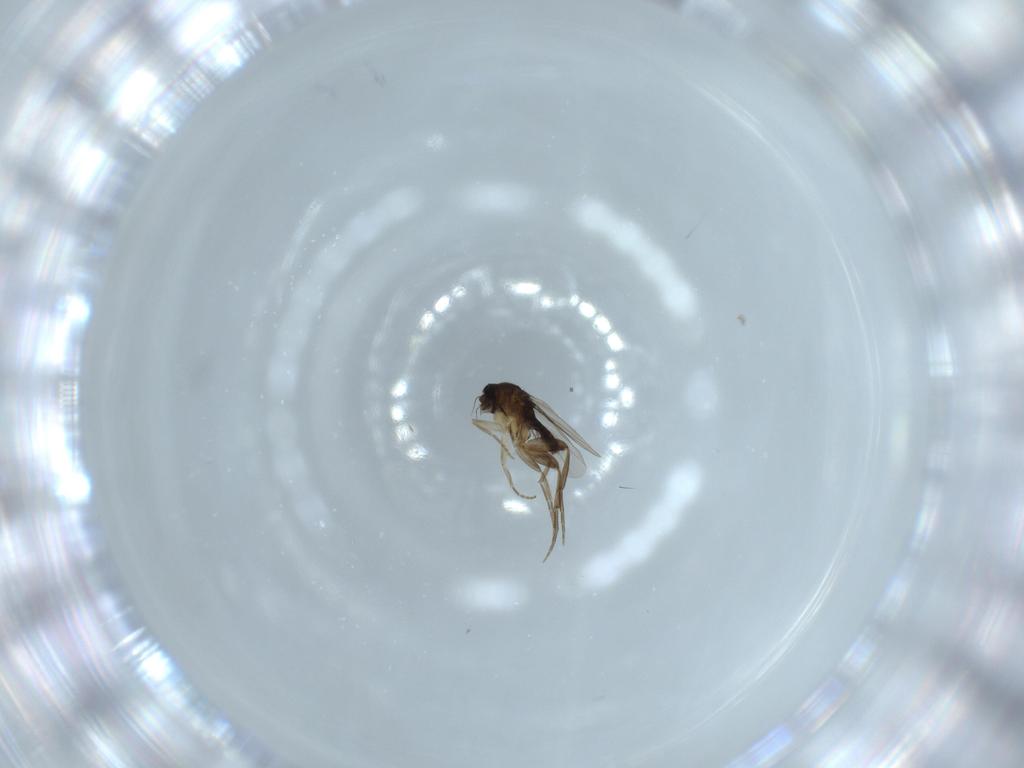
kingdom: Animalia
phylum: Arthropoda
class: Insecta
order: Diptera
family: Phoridae
